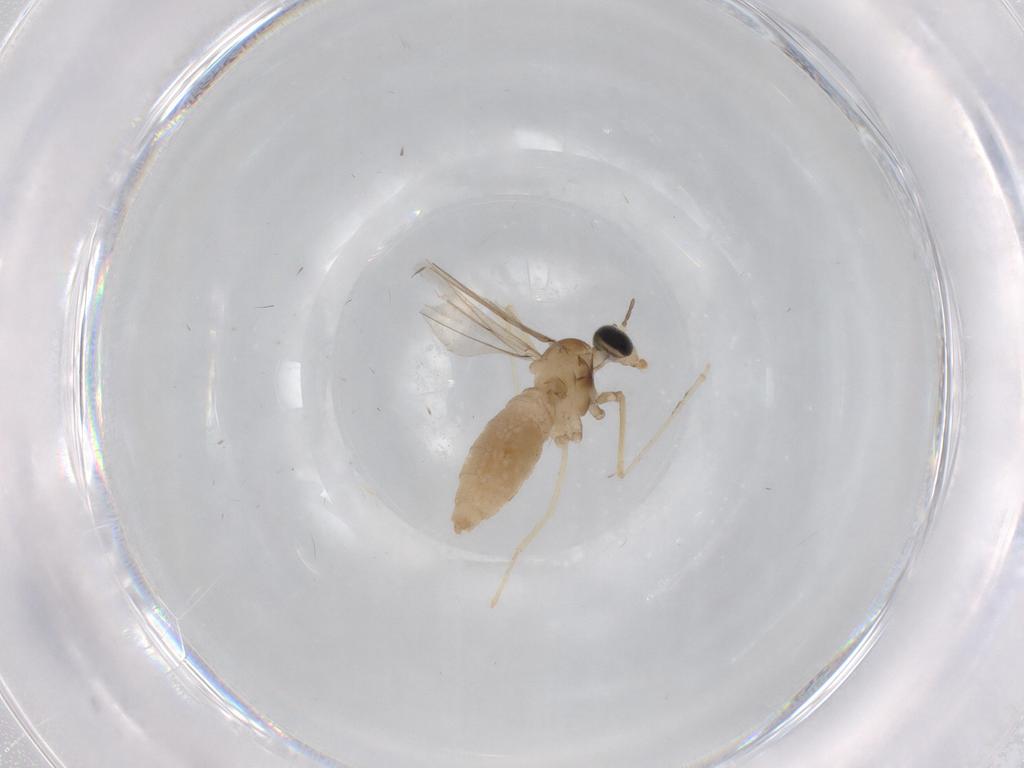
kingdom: Animalia
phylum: Arthropoda
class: Insecta
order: Diptera
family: Cecidomyiidae
